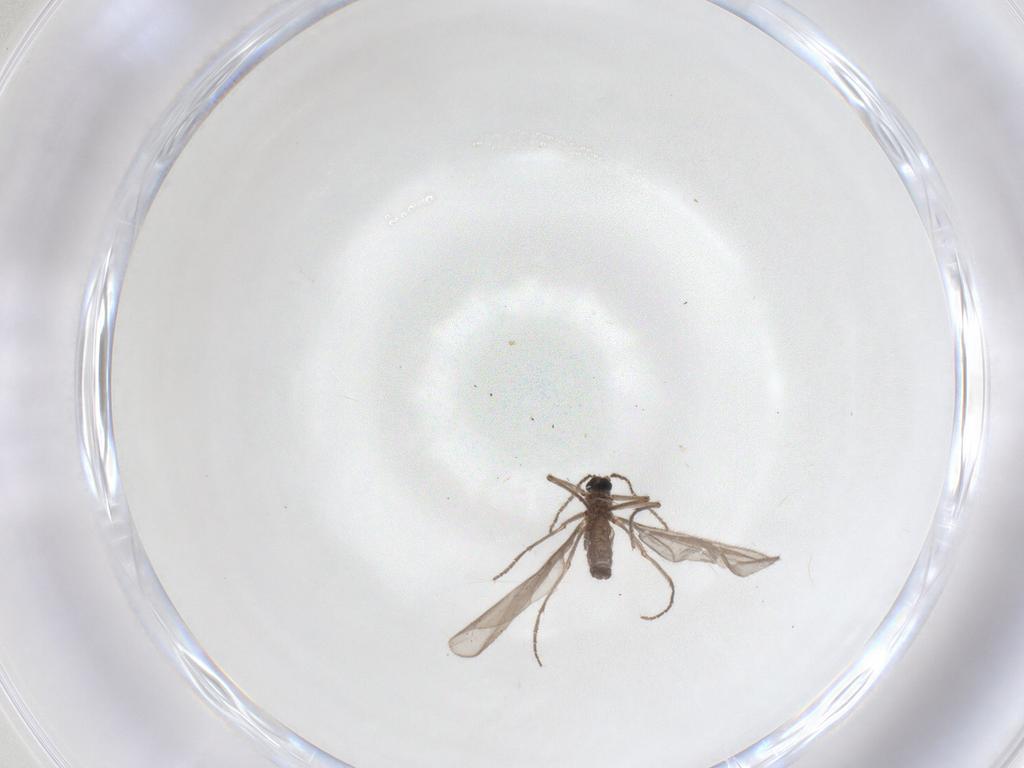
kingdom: Animalia
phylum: Arthropoda
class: Insecta
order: Diptera
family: Sciaridae
